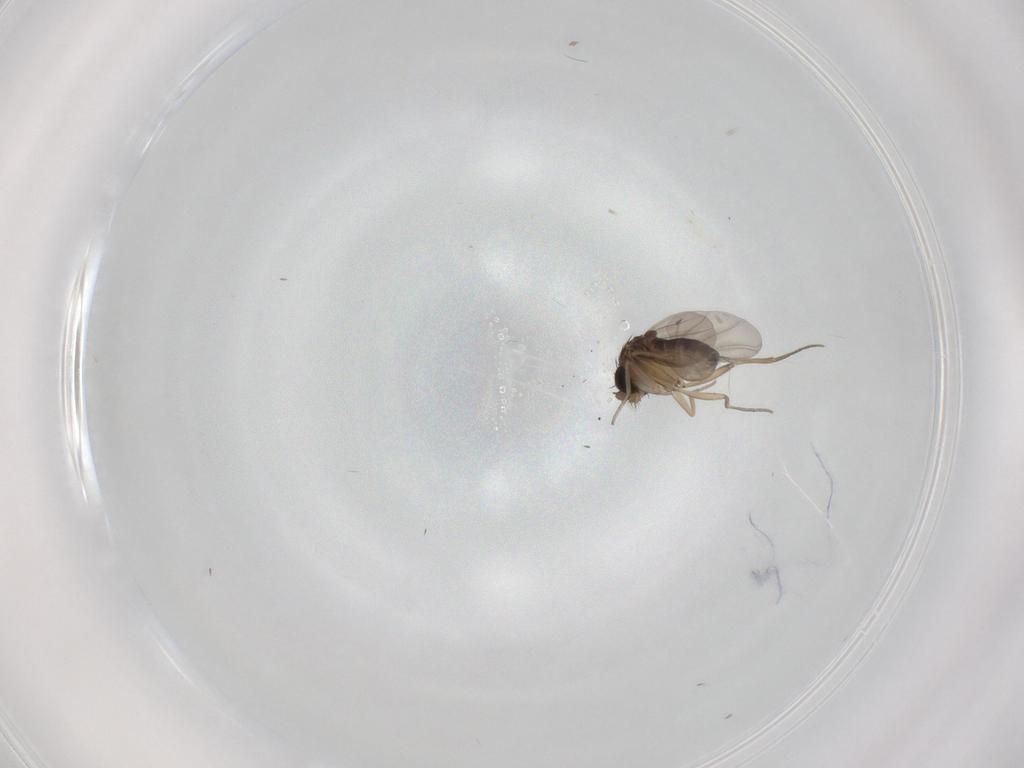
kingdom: Animalia
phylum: Arthropoda
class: Insecta
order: Diptera
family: Phoridae
